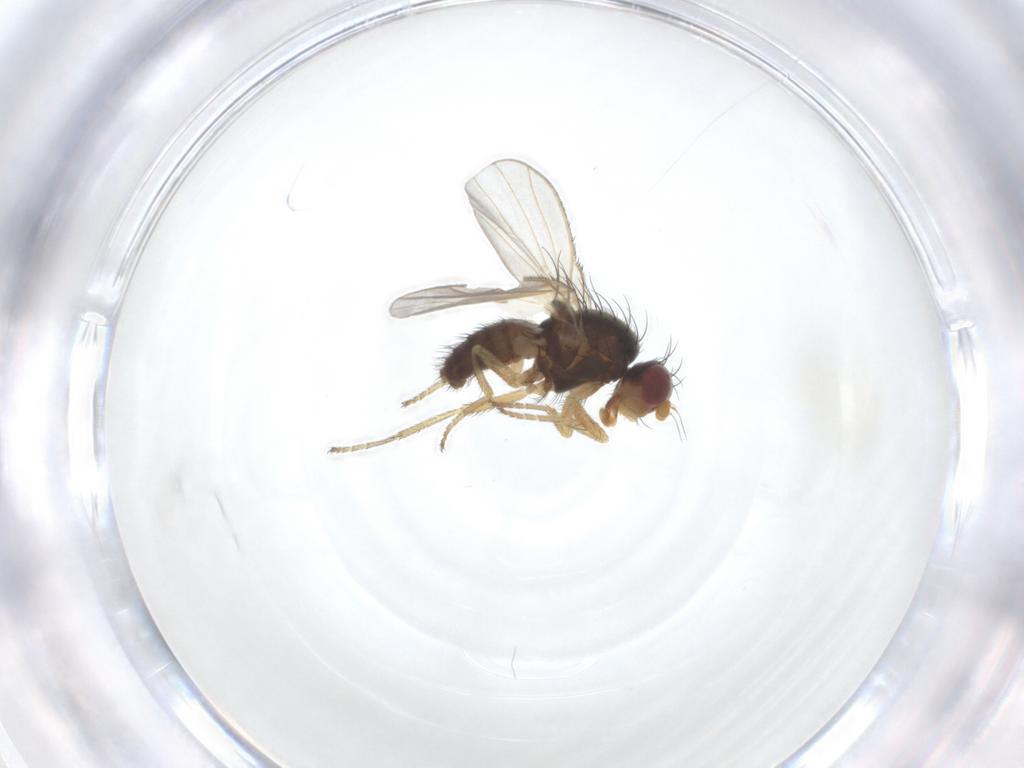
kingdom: Animalia
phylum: Arthropoda
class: Insecta
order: Diptera
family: Heleomyzidae
